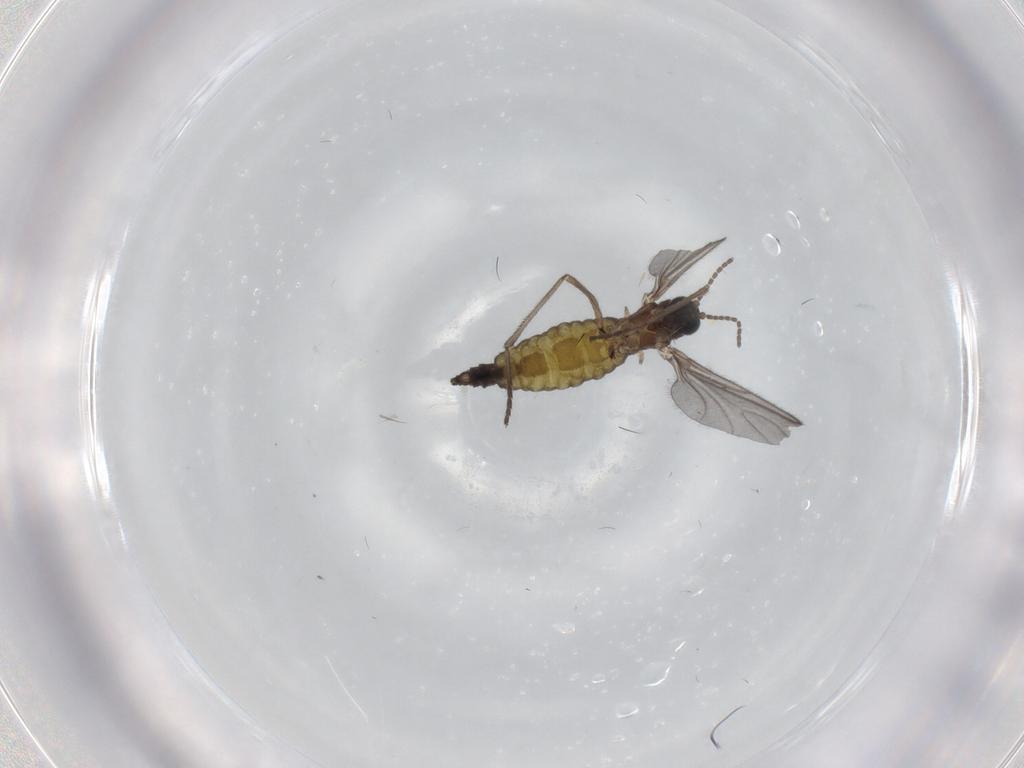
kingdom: Animalia
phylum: Arthropoda
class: Insecta
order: Diptera
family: Sciaridae
